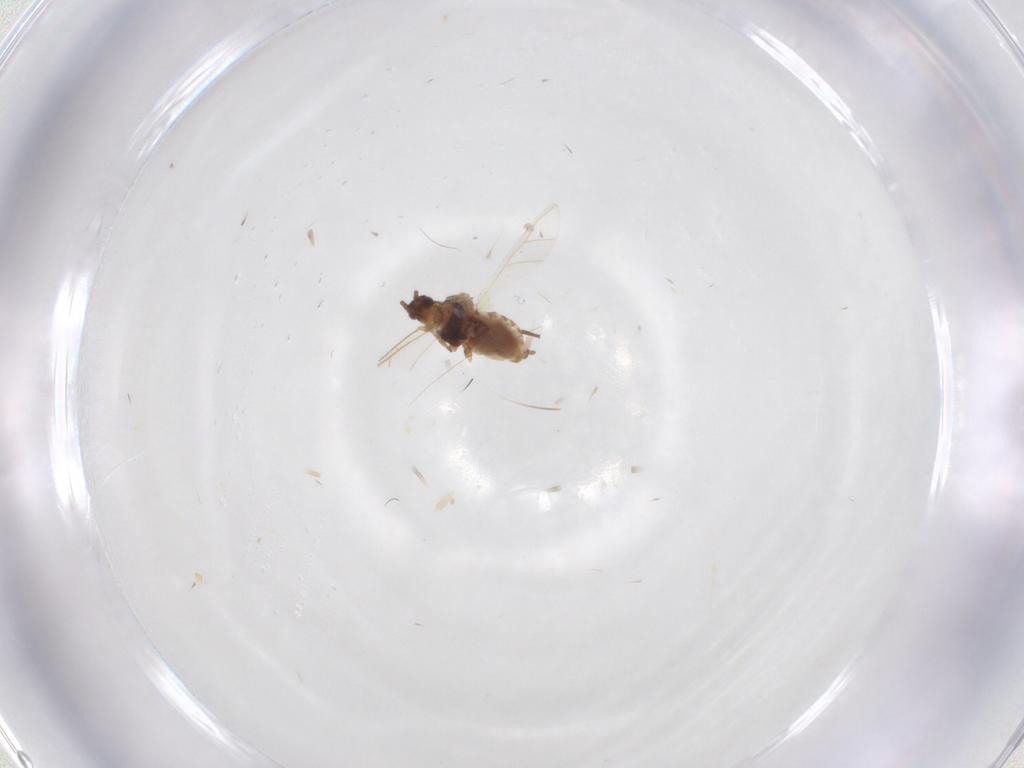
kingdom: Animalia
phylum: Arthropoda
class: Insecta
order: Hemiptera
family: Aphididae
